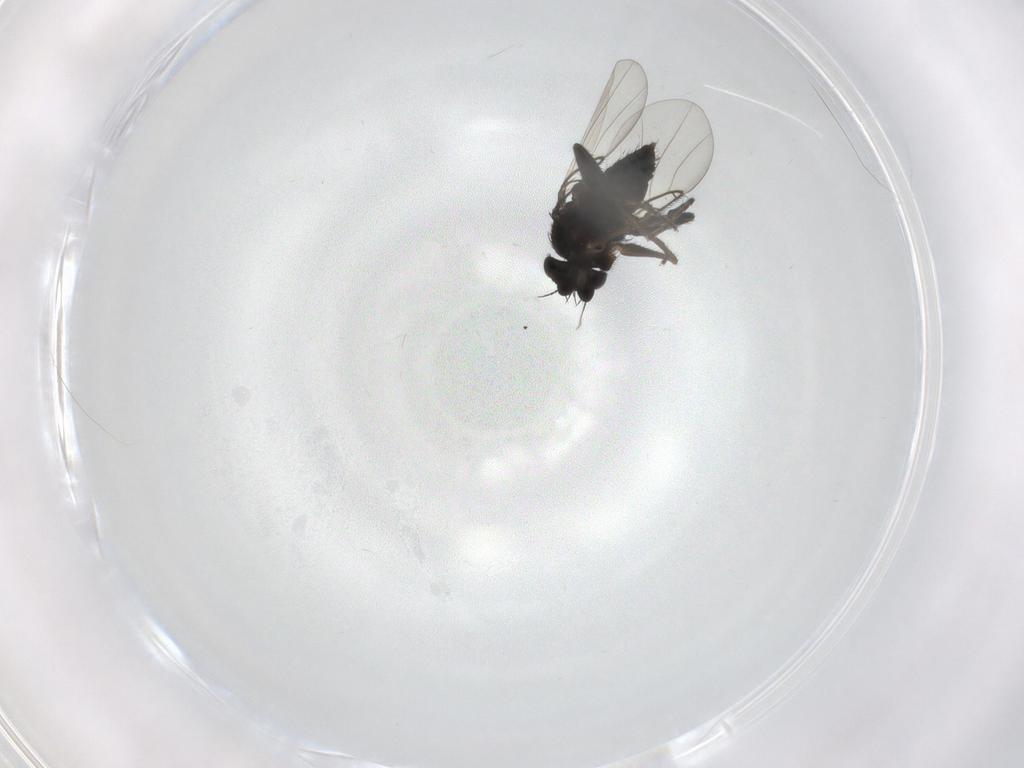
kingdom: Animalia
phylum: Arthropoda
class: Insecta
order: Diptera
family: Phoridae
